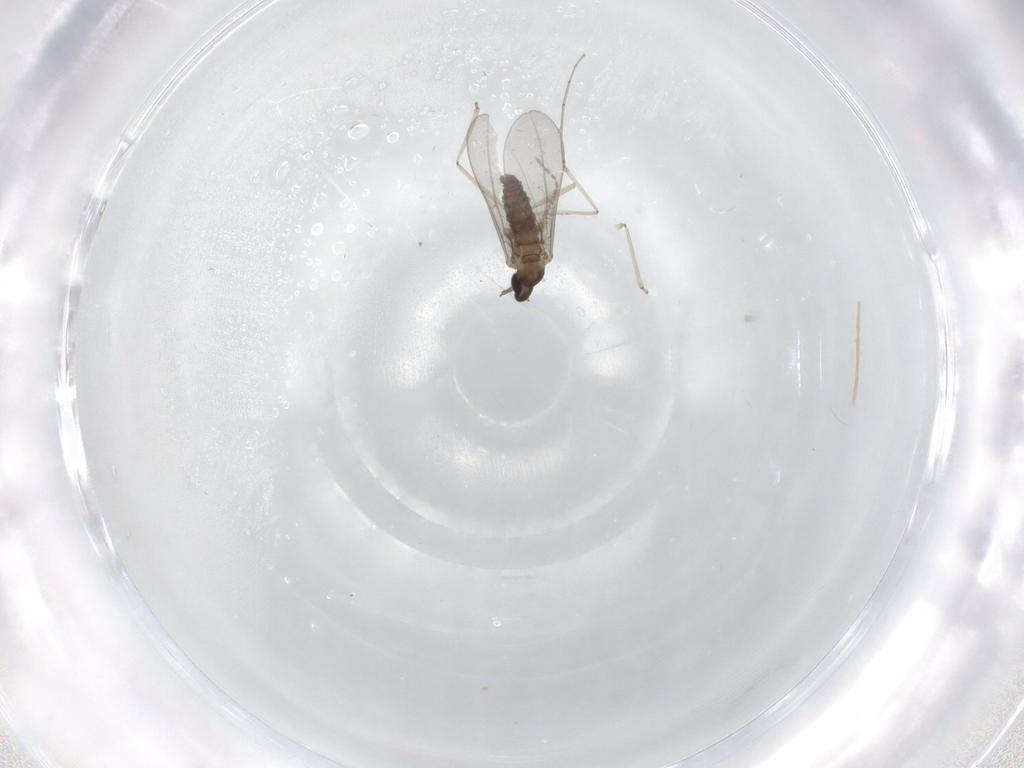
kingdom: Animalia
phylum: Arthropoda
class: Insecta
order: Diptera
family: Cecidomyiidae
